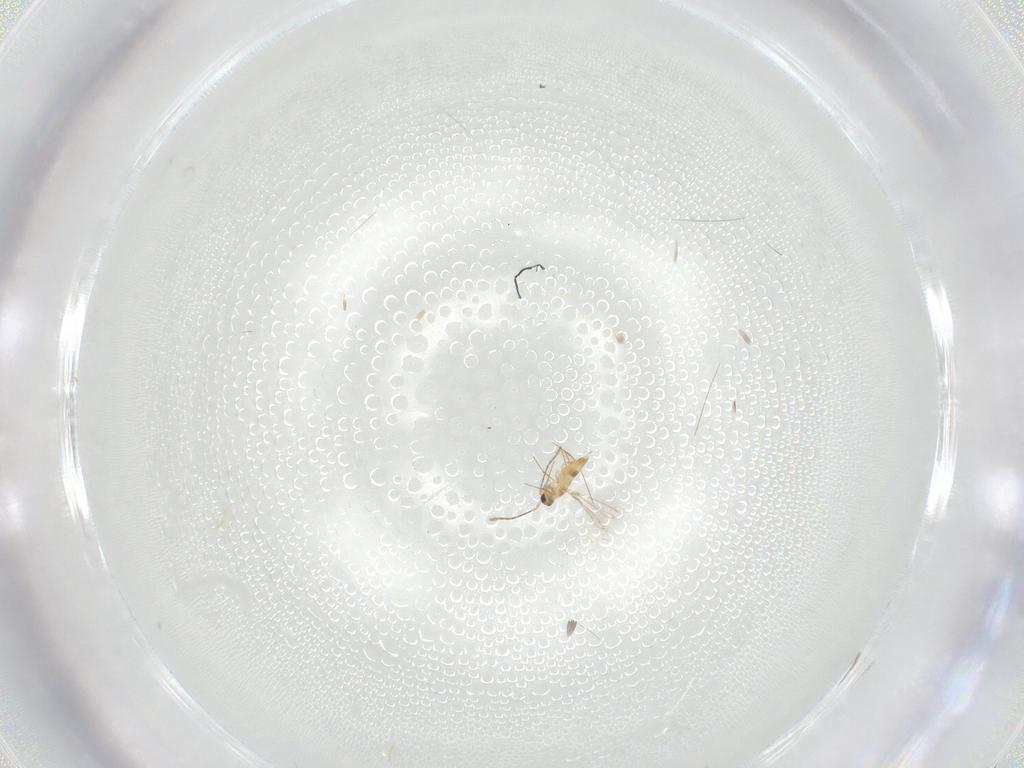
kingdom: Animalia
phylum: Arthropoda
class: Insecta
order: Hymenoptera
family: Mymaridae
